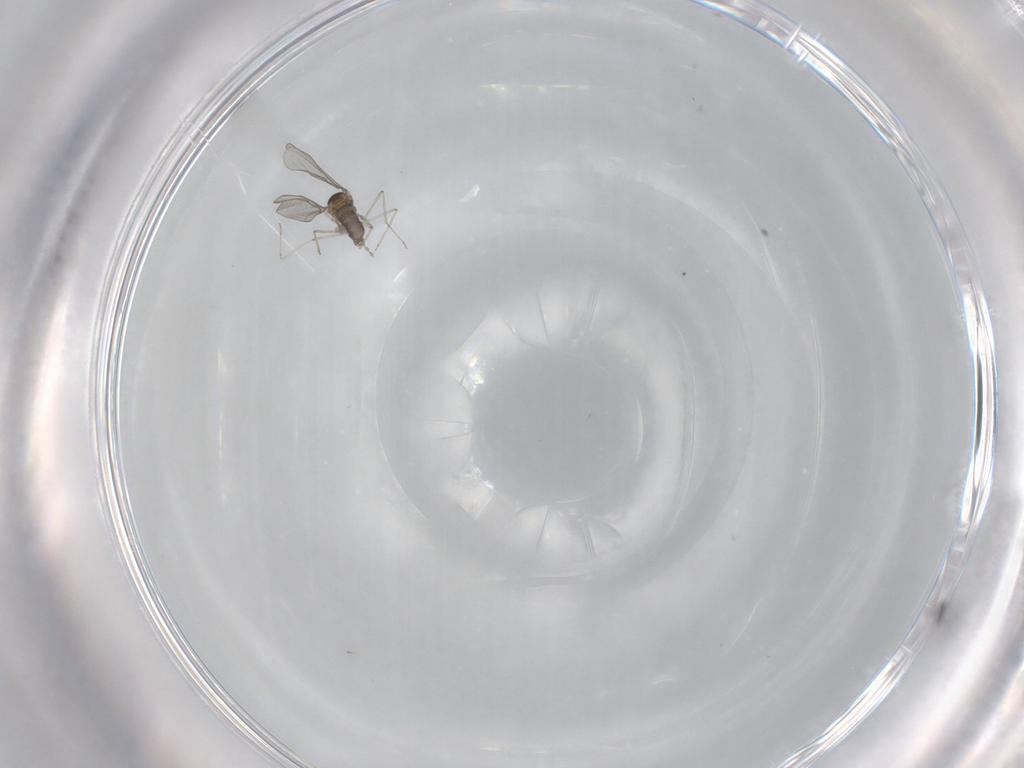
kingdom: Animalia
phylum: Arthropoda
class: Insecta
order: Diptera
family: Cecidomyiidae
